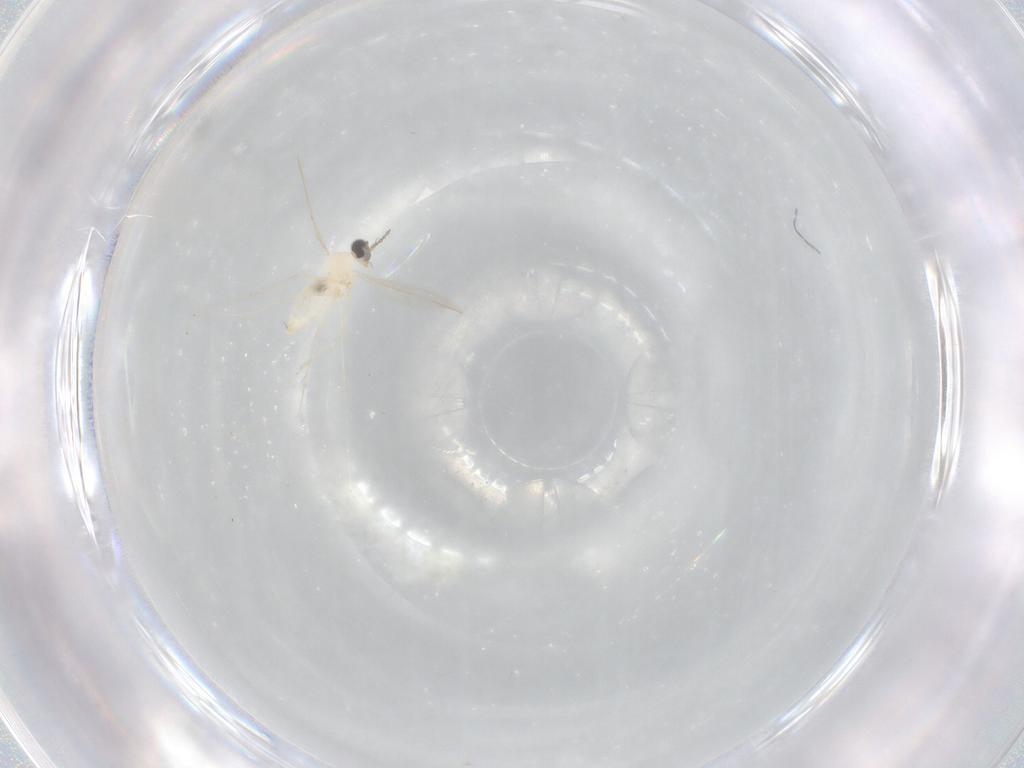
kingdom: Animalia
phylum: Arthropoda
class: Insecta
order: Diptera
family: Cecidomyiidae
